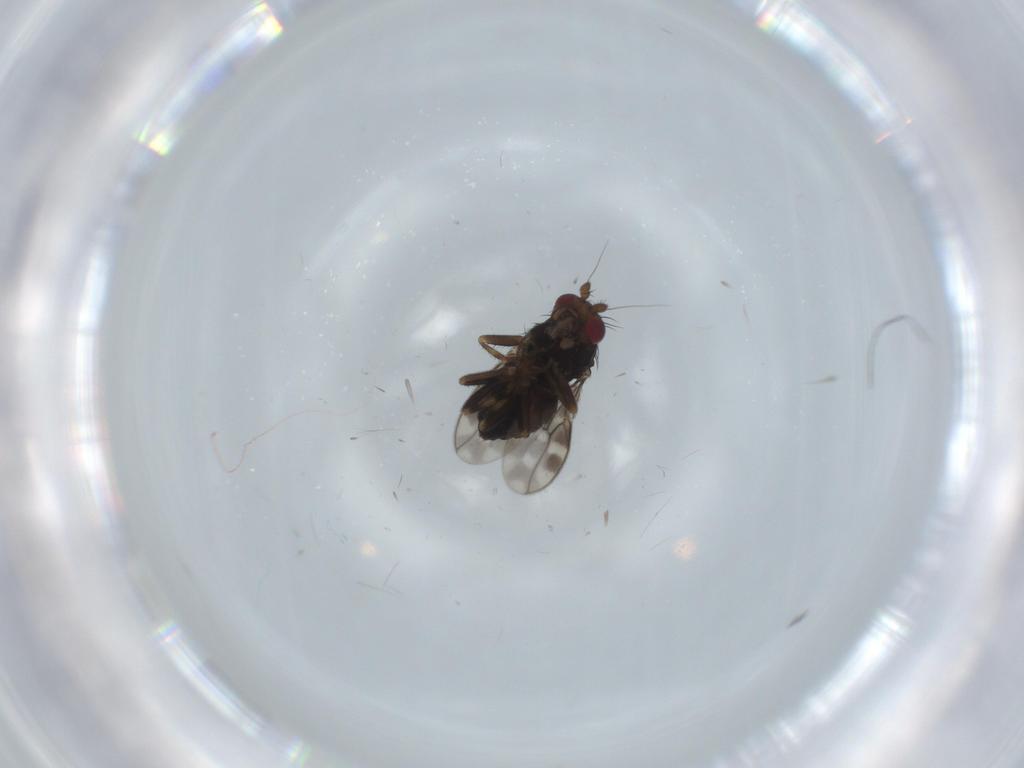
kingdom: Animalia
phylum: Arthropoda
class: Insecta
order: Diptera
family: Sphaeroceridae
